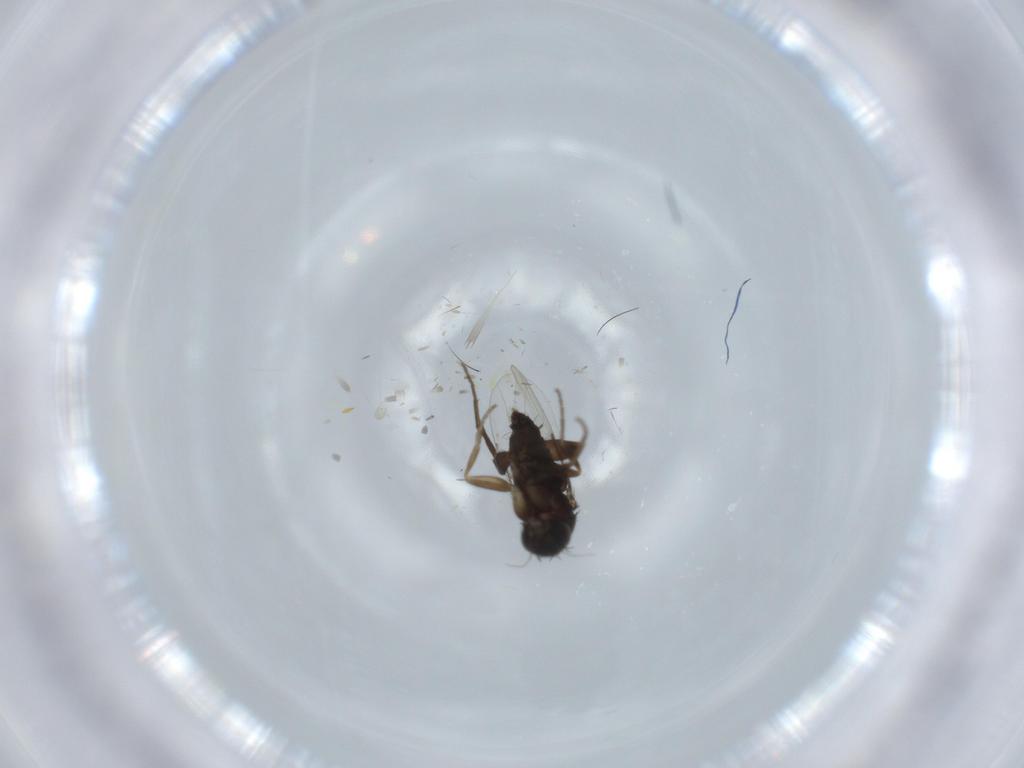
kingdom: Animalia
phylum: Arthropoda
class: Insecta
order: Diptera
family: Phoridae
